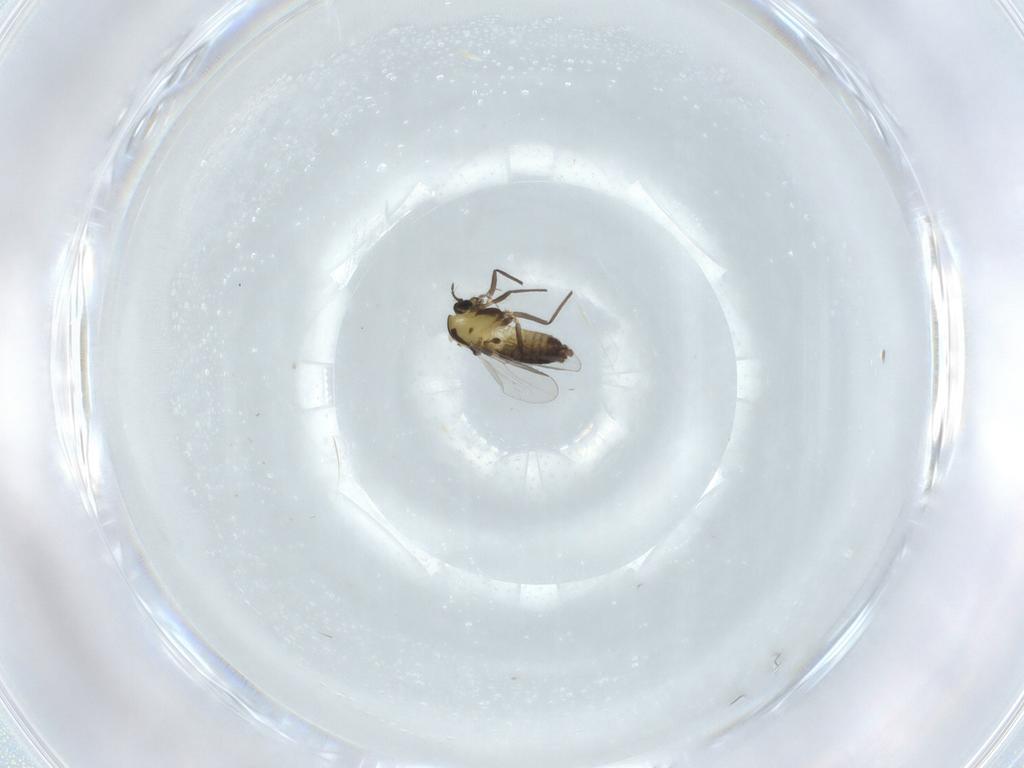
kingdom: Animalia
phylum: Arthropoda
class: Insecta
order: Diptera
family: Chironomidae
